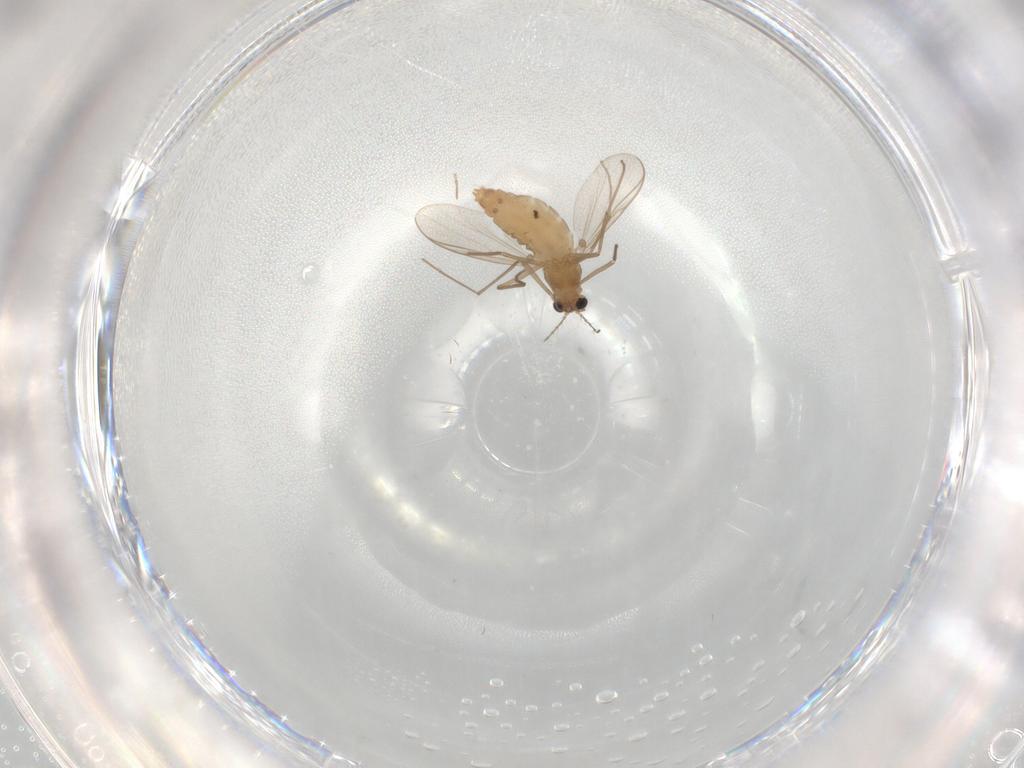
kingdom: Animalia
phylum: Arthropoda
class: Insecta
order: Diptera
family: Chironomidae
